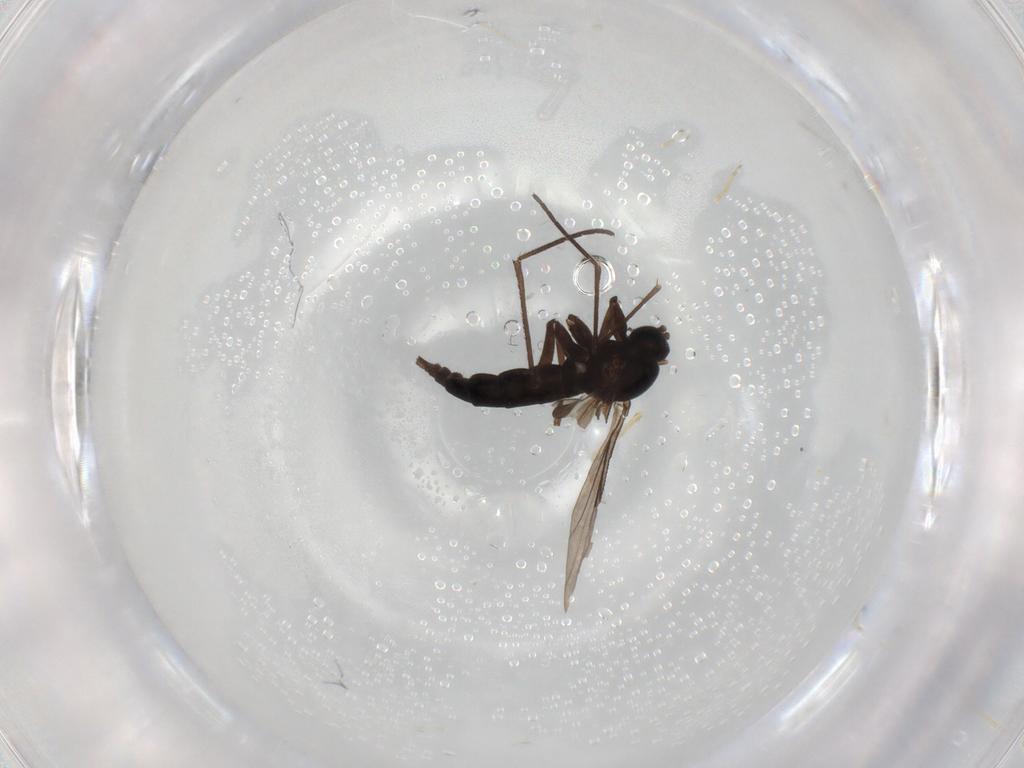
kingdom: Animalia
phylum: Arthropoda
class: Insecta
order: Diptera
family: Sciaridae
